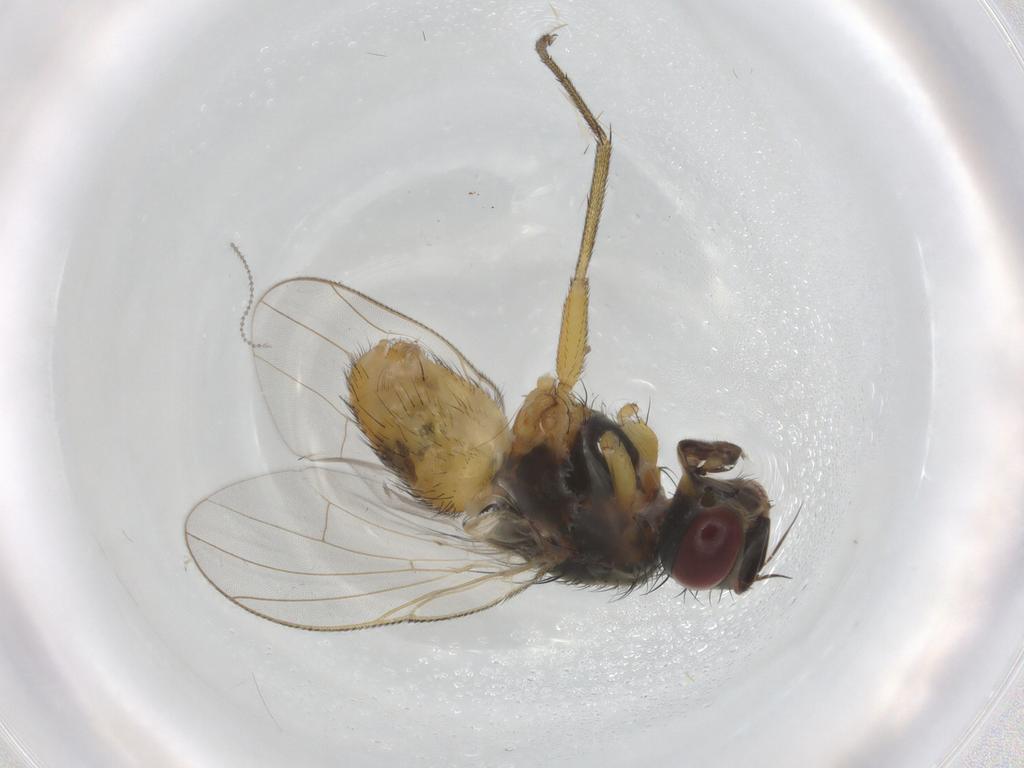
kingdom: Animalia
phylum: Arthropoda
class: Insecta
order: Diptera
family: Muscidae
